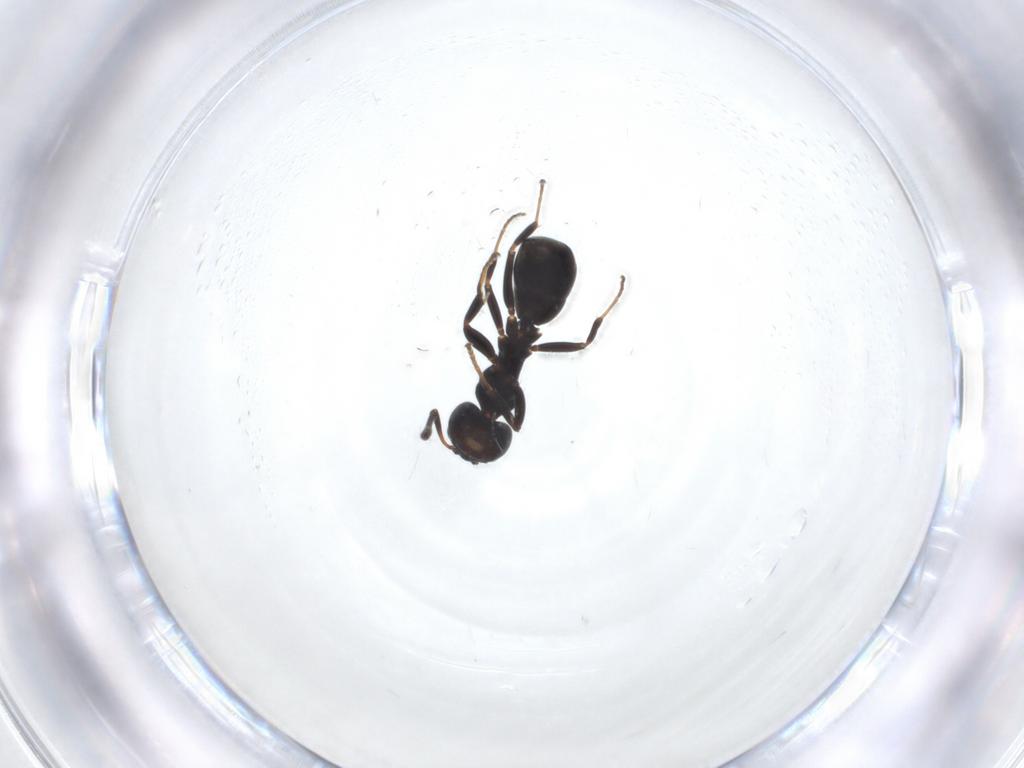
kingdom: Animalia
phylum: Arthropoda
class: Insecta
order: Hymenoptera
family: Formicidae
